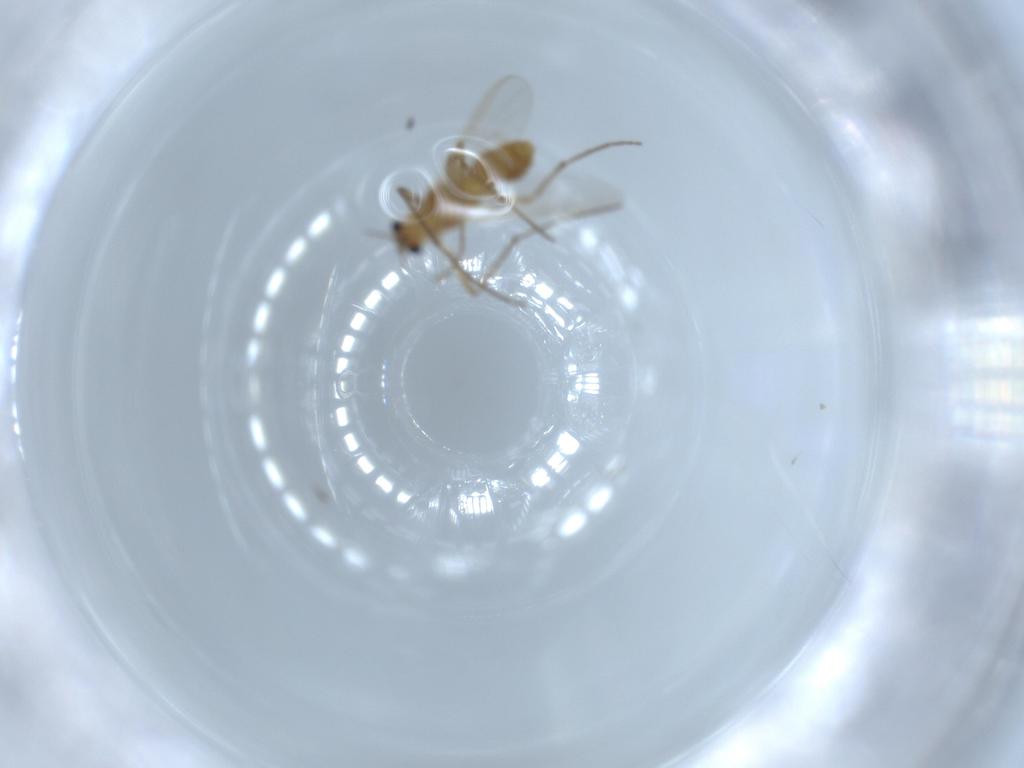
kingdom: Animalia
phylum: Arthropoda
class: Insecta
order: Diptera
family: Chironomidae
